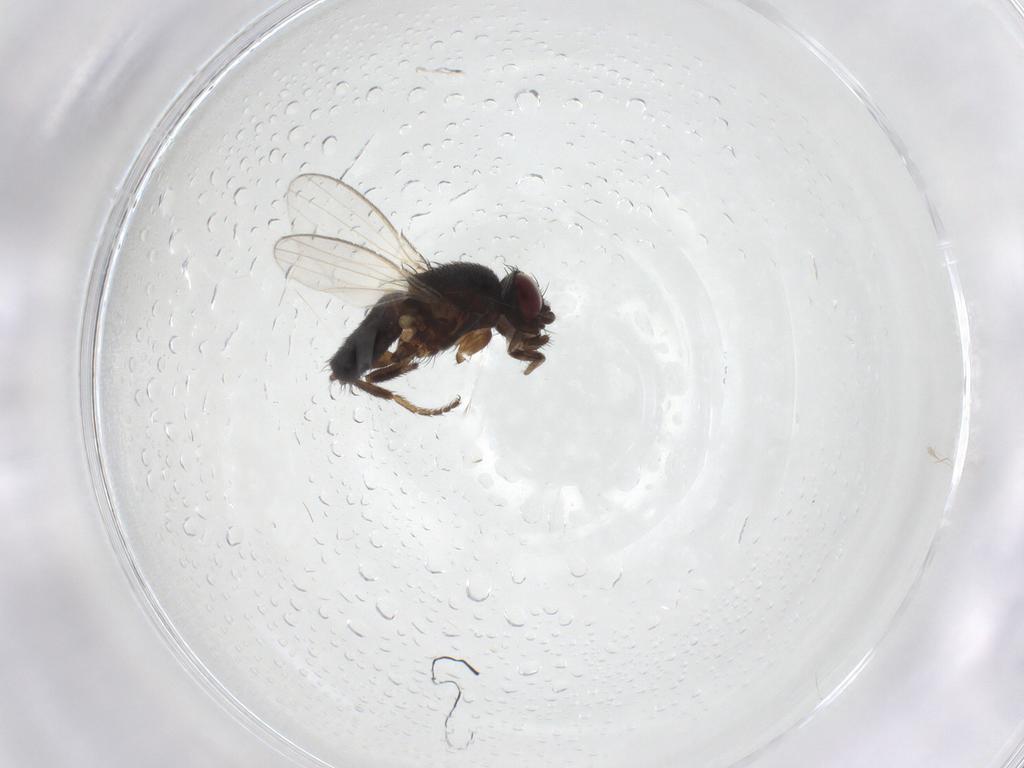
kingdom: Animalia
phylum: Arthropoda
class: Insecta
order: Diptera
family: Milichiidae
